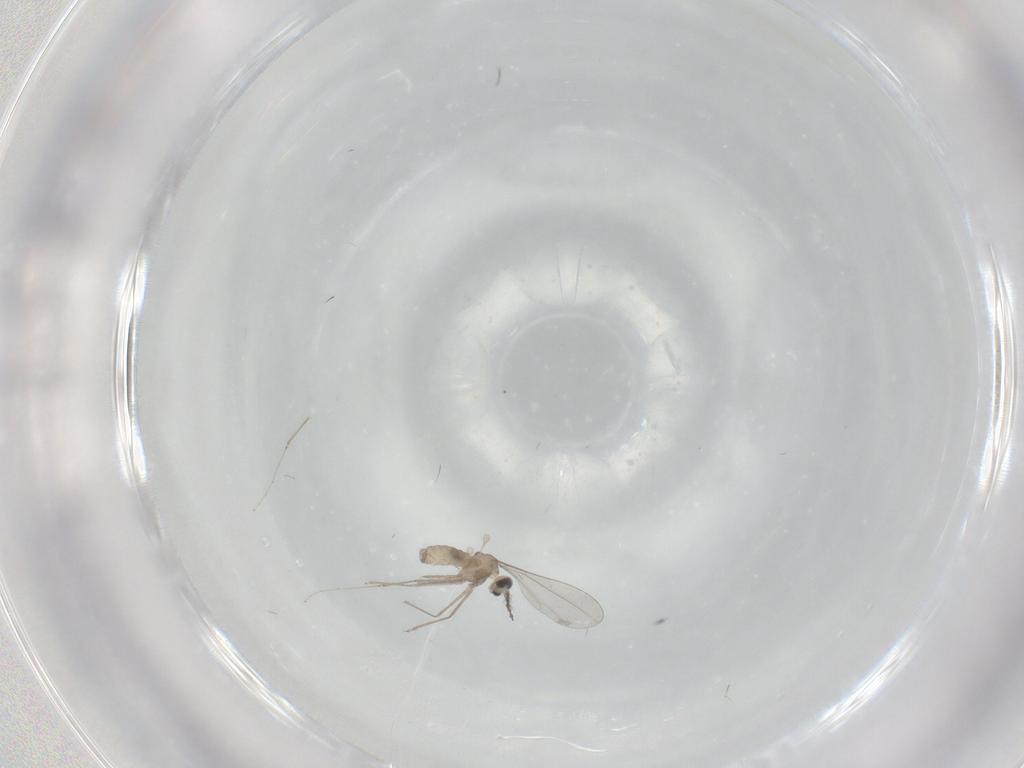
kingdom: Animalia
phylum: Arthropoda
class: Insecta
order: Diptera
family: Cecidomyiidae
